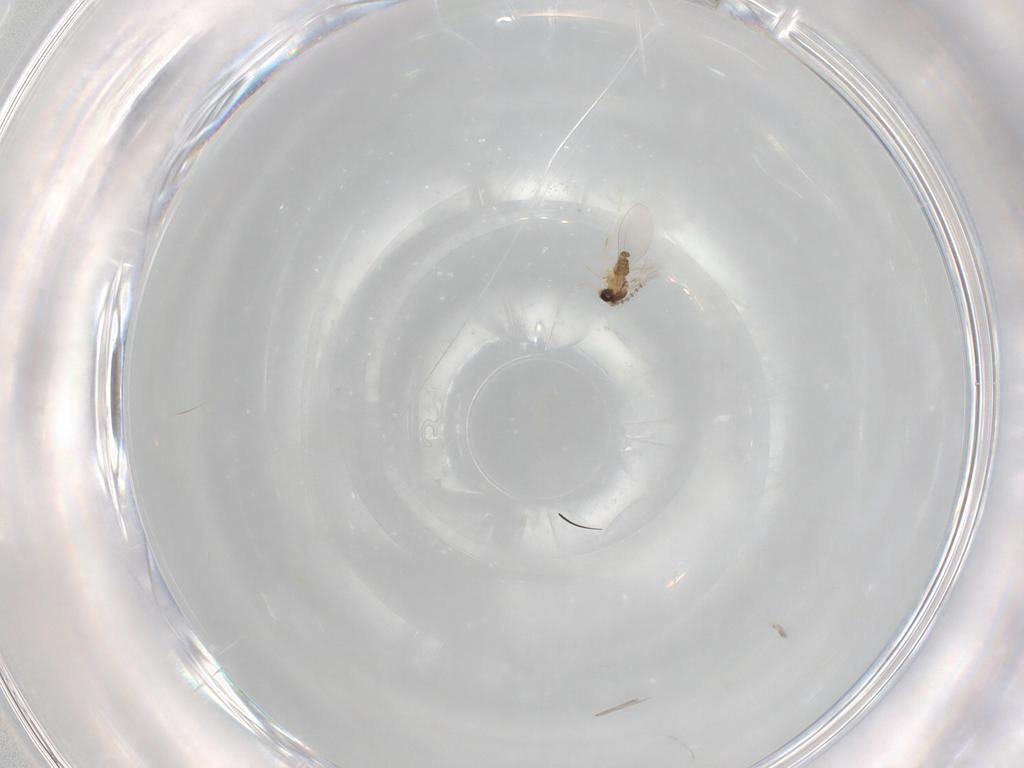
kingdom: Animalia
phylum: Arthropoda
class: Insecta
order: Diptera
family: Cecidomyiidae
